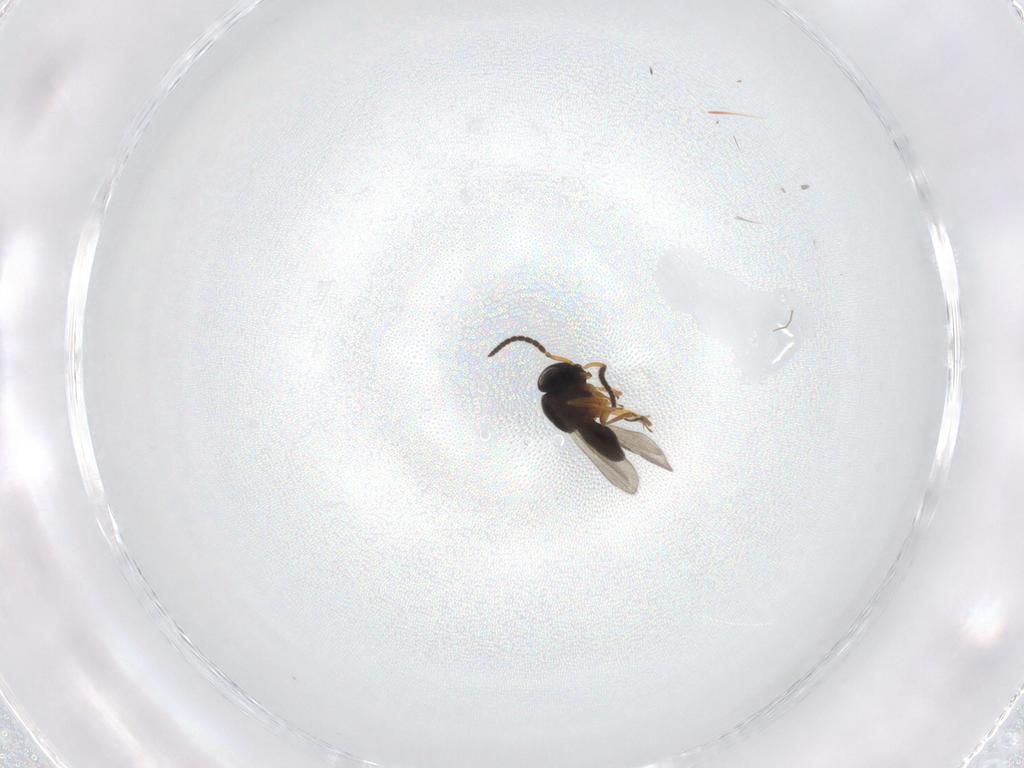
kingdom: Animalia
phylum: Arthropoda
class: Insecta
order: Hymenoptera
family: Scelionidae
